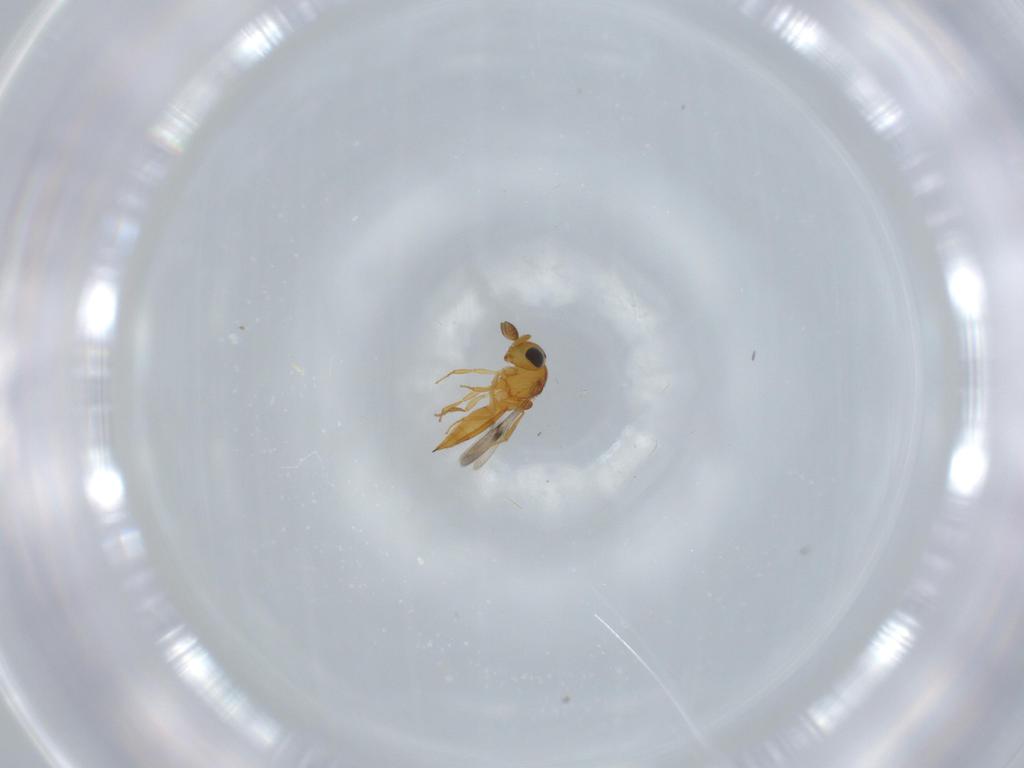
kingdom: Animalia
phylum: Arthropoda
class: Insecta
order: Hymenoptera
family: Scelionidae
